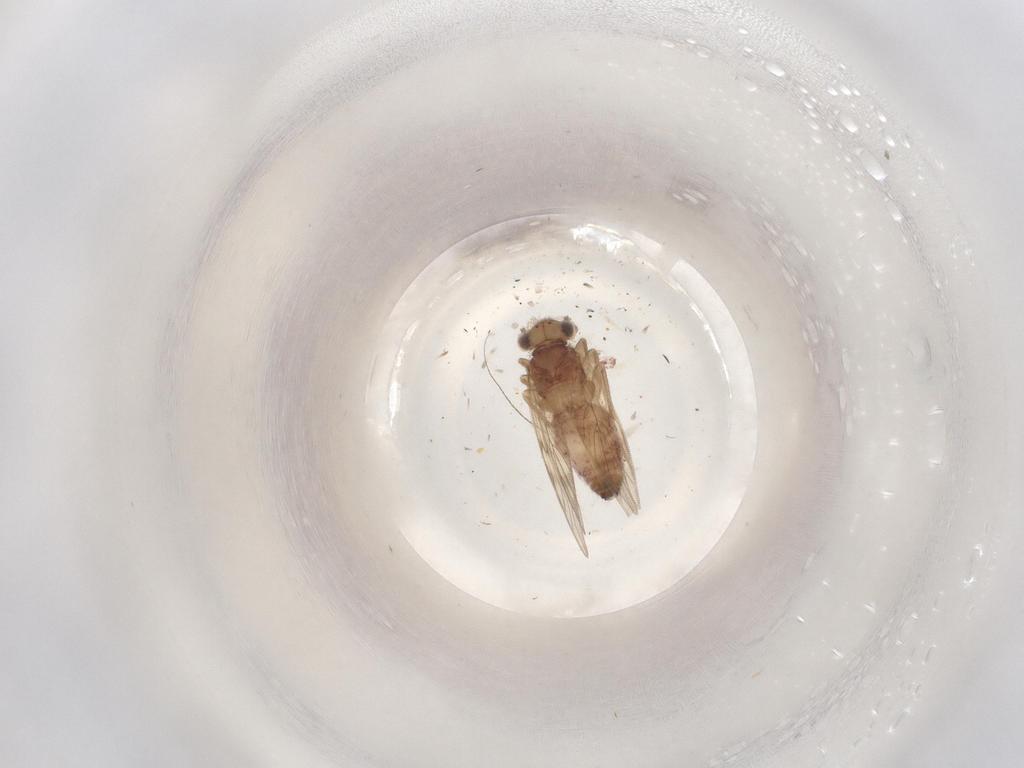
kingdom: Animalia
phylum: Arthropoda
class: Insecta
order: Psocodea
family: Lepidopsocidae
